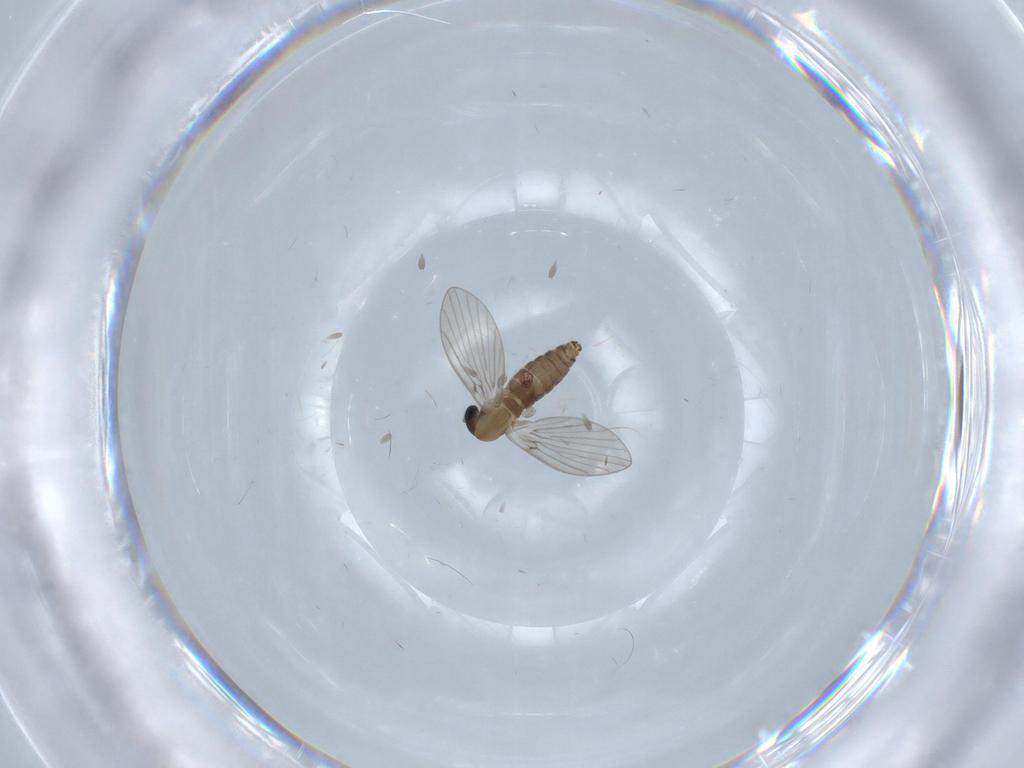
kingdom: Animalia
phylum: Arthropoda
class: Insecta
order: Diptera
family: Psychodidae
